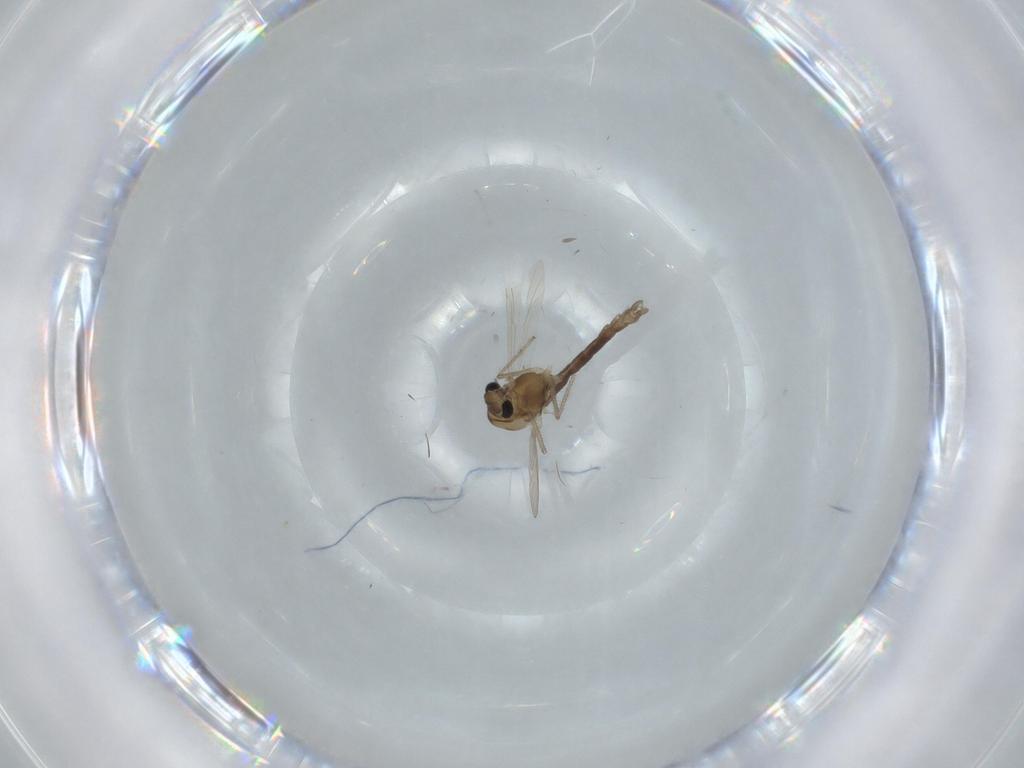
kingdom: Animalia
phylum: Arthropoda
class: Insecta
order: Diptera
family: Chironomidae
